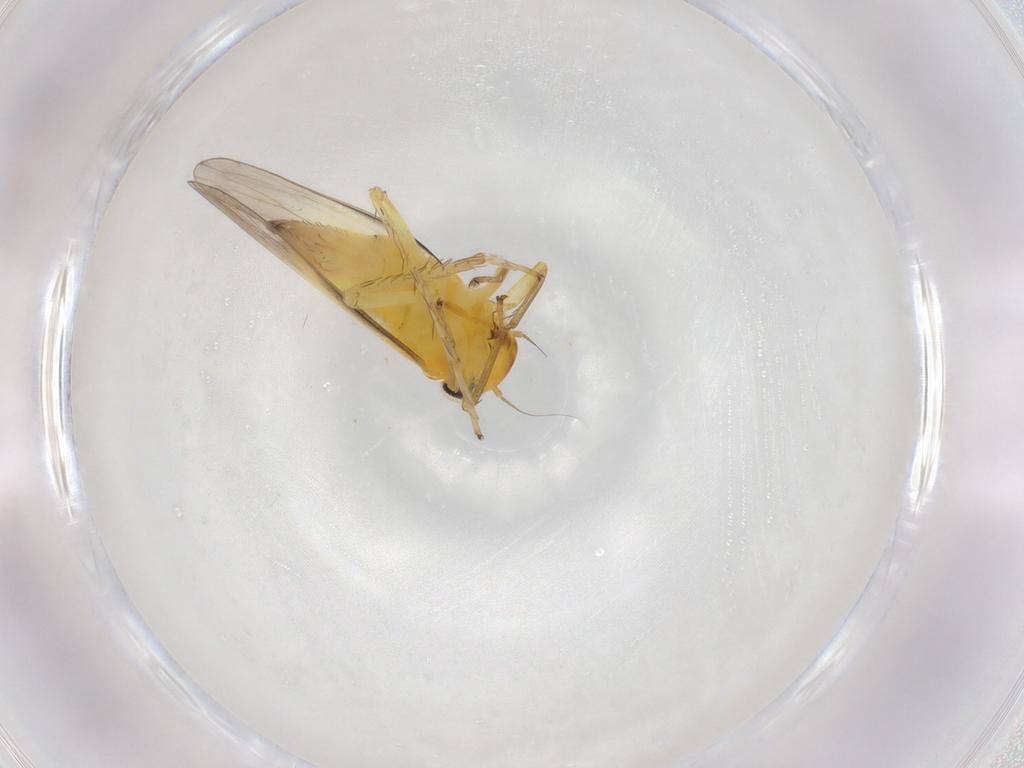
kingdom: Animalia
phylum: Arthropoda
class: Insecta
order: Hemiptera
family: Cicadellidae
